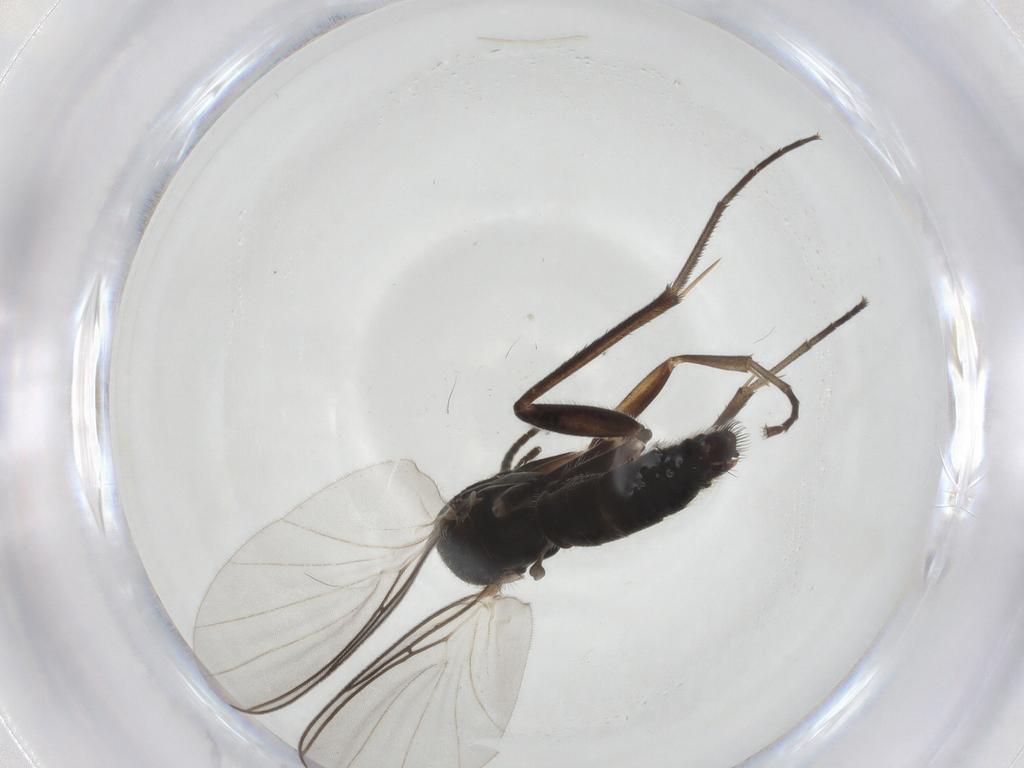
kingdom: Animalia
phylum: Arthropoda
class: Insecta
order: Diptera
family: Mycetophilidae
